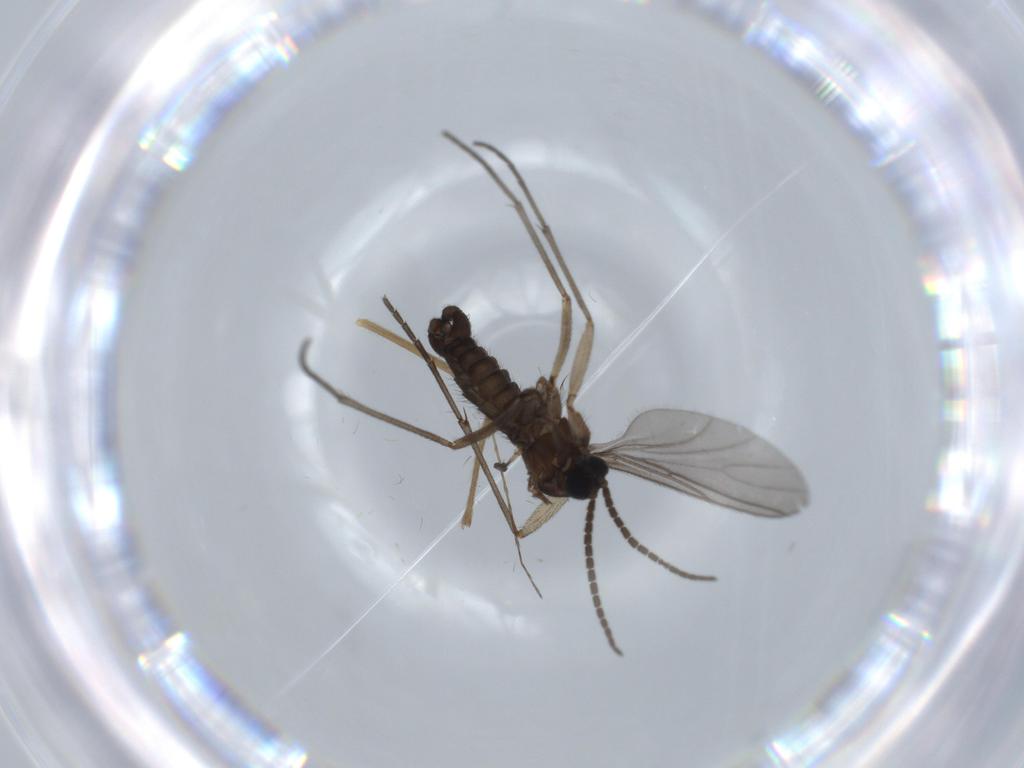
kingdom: Animalia
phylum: Arthropoda
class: Insecta
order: Diptera
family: Sciaridae
